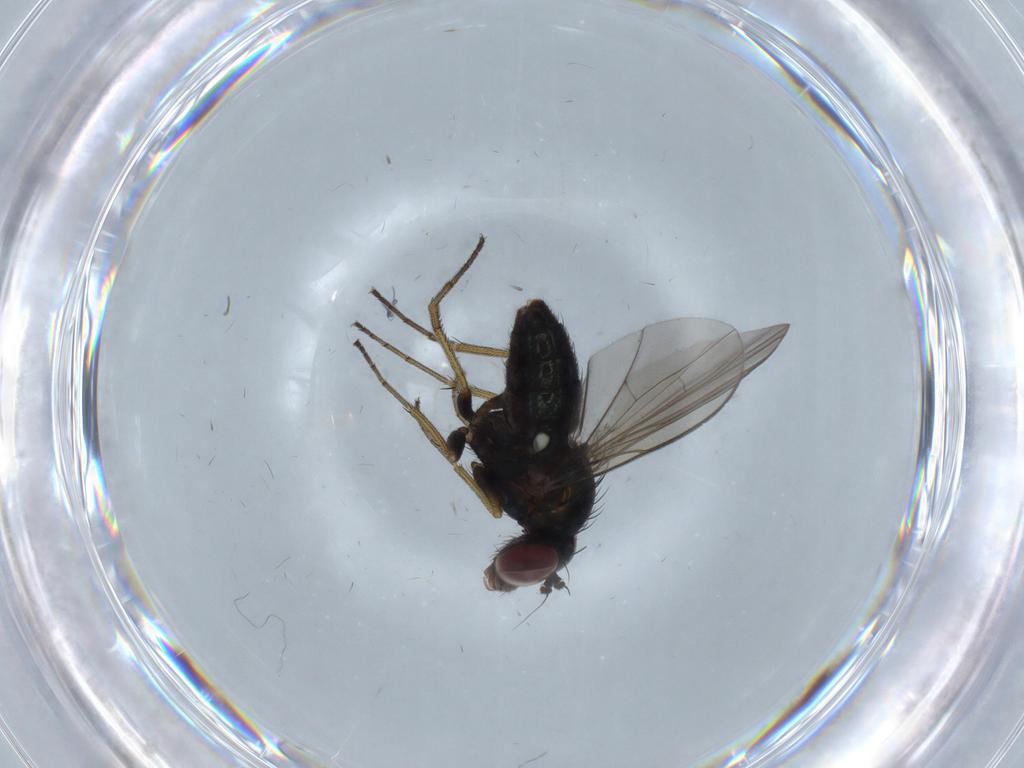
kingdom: Animalia
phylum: Arthropoda
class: Insecta
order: Diptera
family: Dolichopodidae
